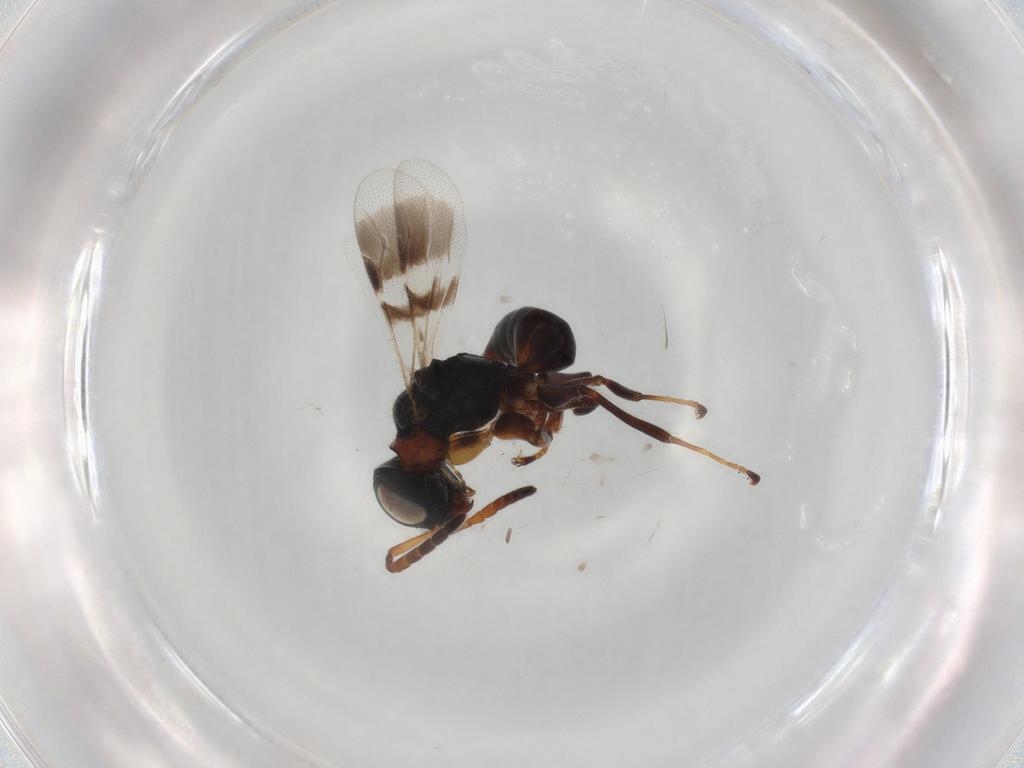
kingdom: Animalia
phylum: Arthropoda
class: Insecta
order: Hymenoptera
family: Dryinidae
